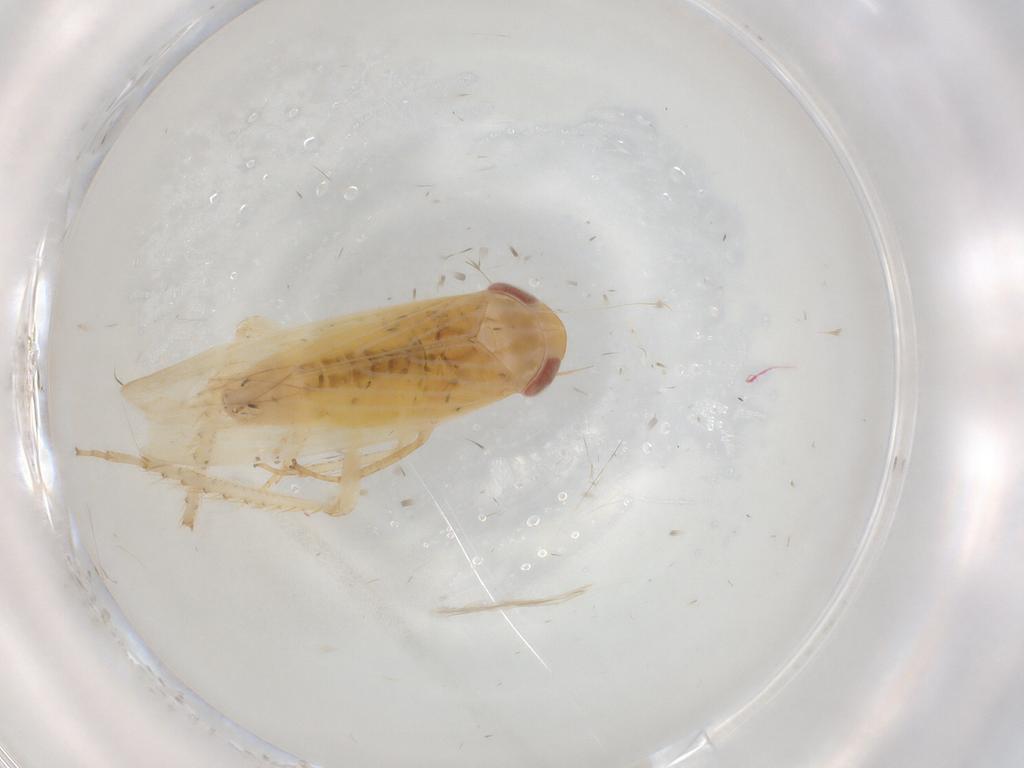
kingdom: Animalia
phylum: Arthropoda
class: Insecta
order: Hemiptera
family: Cicadellidae
